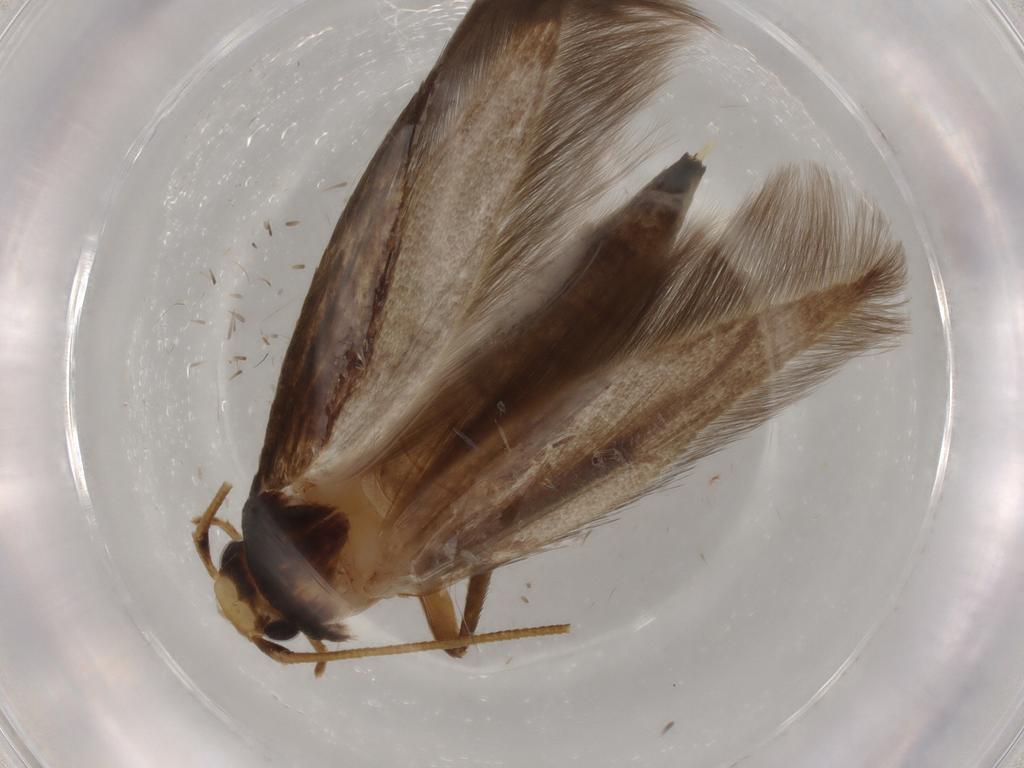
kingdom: Animalia
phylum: Arthropoda
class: Insecta
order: Lepidoptera
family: Tineidae
